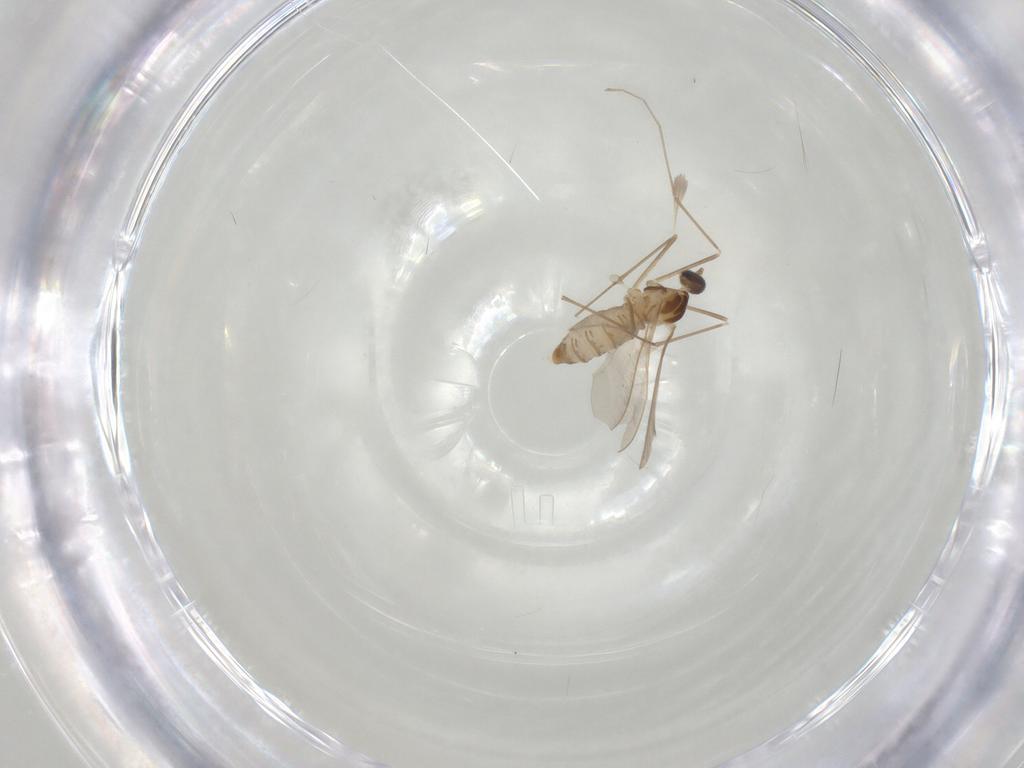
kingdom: Animalia
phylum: Arthropoda
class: Insecta
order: Diptera
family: Cecidomyiidae
